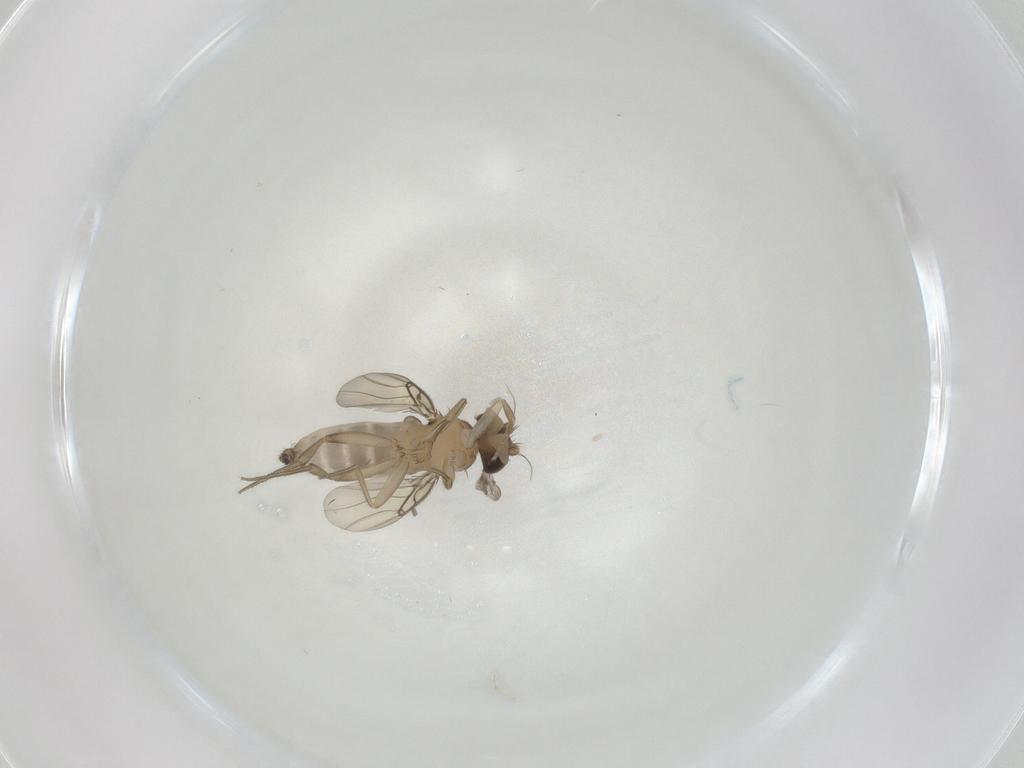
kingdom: Animalia
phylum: Arthropoda
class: Insecta
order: Diptera
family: Phoridae
